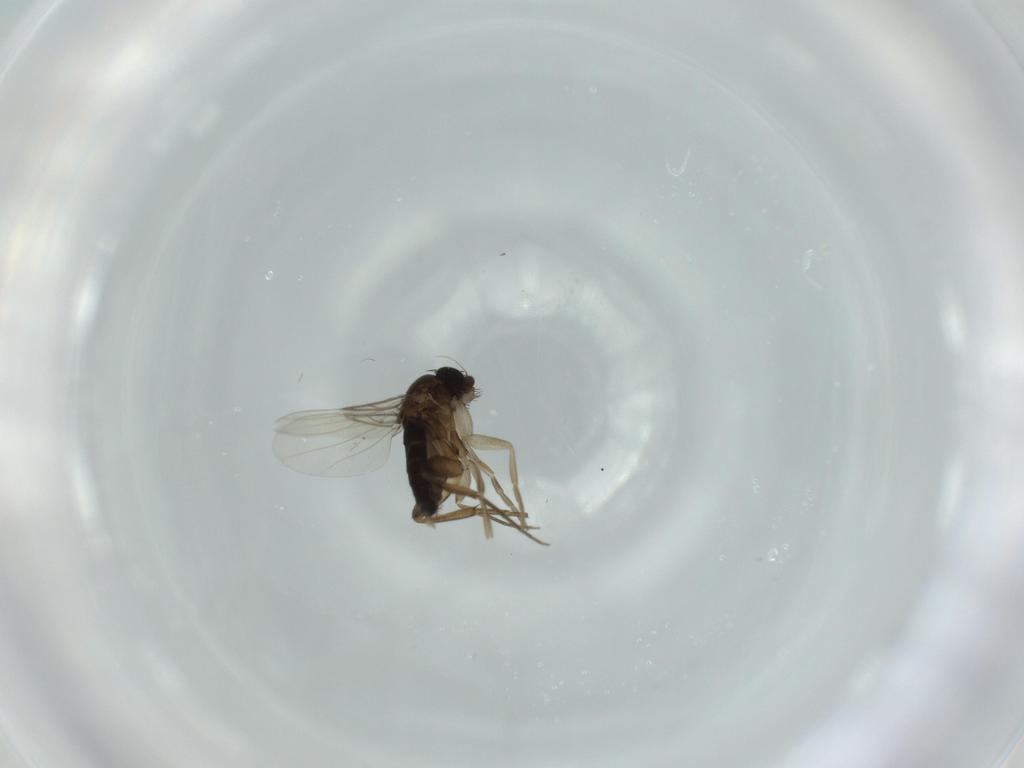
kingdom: Animalia
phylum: Arthropoda
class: Insecta
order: Diptera
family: Phoridae
